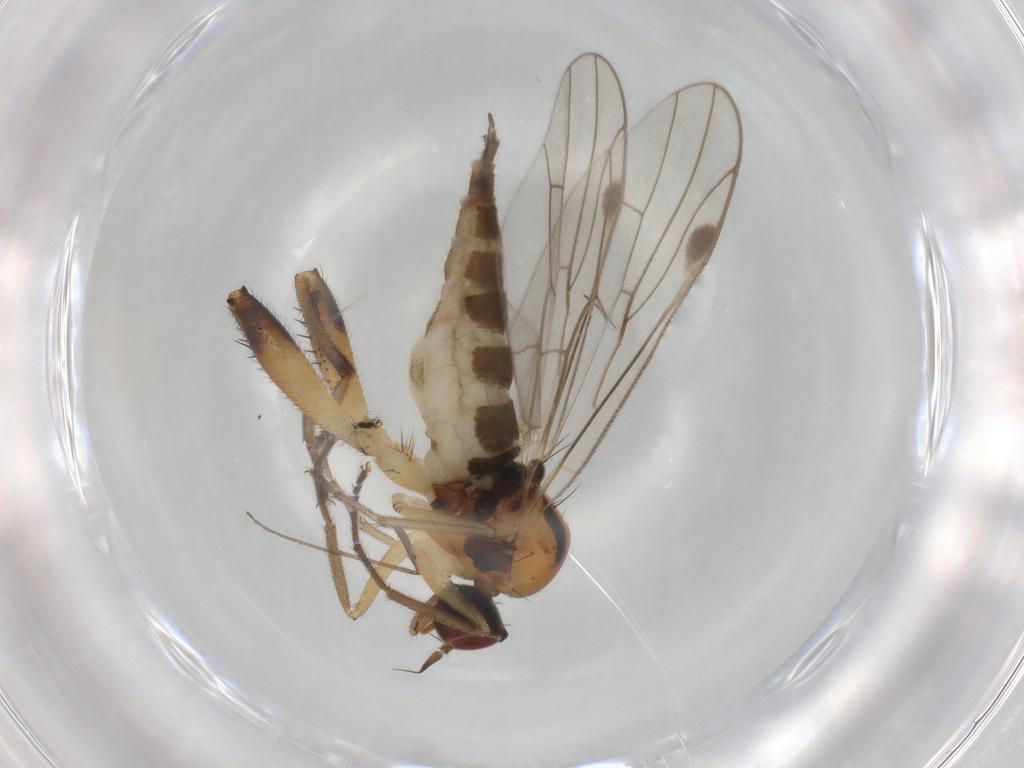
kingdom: Animalia
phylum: Arthropoda
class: Insecta
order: Diptera
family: Hybotidae
